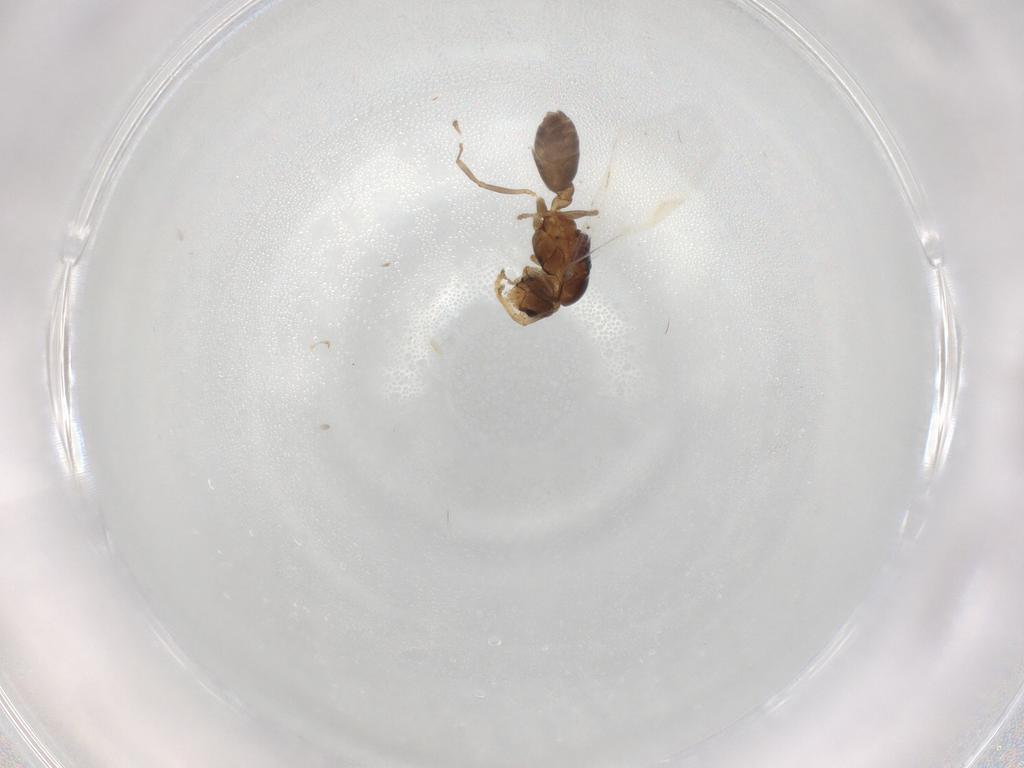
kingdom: Animalia
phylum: Arthropoda
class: Insecta
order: Hymenoptera
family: Formicidae
